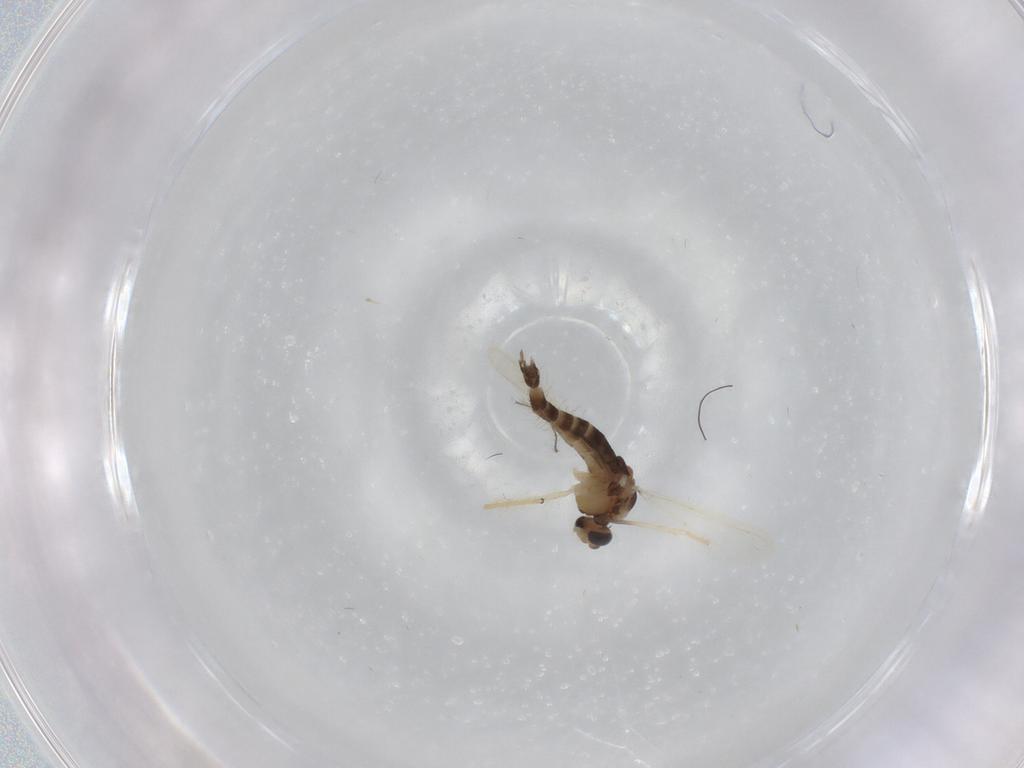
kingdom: Animalia
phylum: Arthropoda
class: Insecta
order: Diptera
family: Chironomidae
